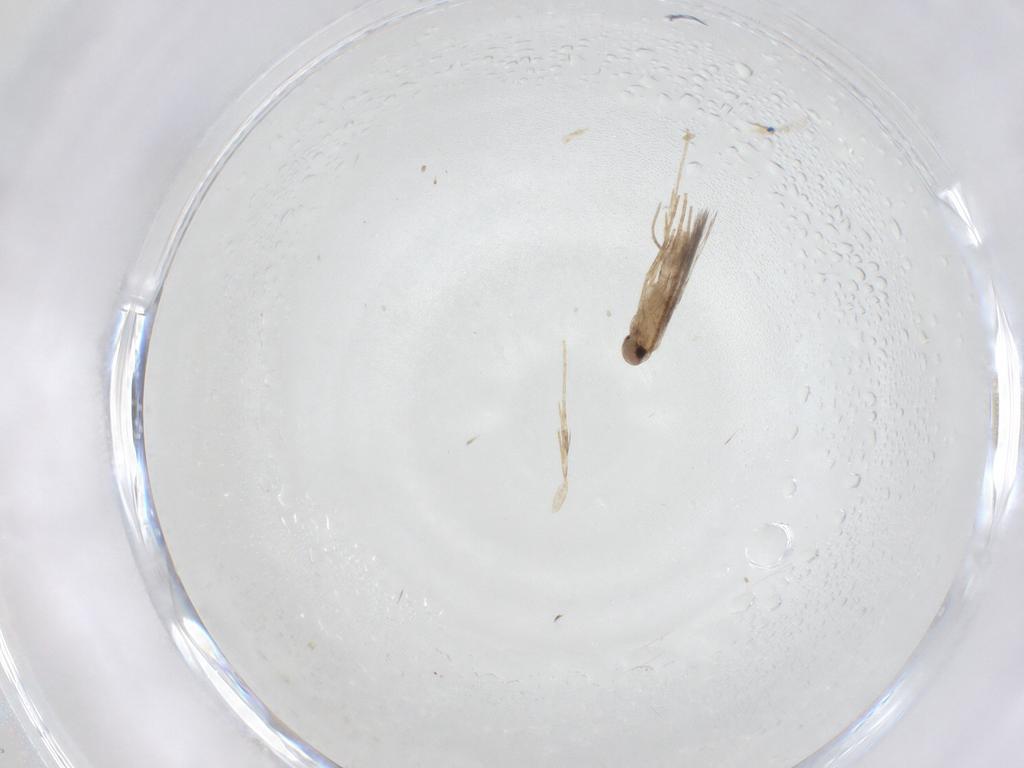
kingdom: Animalia
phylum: Arthropoda
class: Insecta
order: Lepidoptera
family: Gracillariidae
